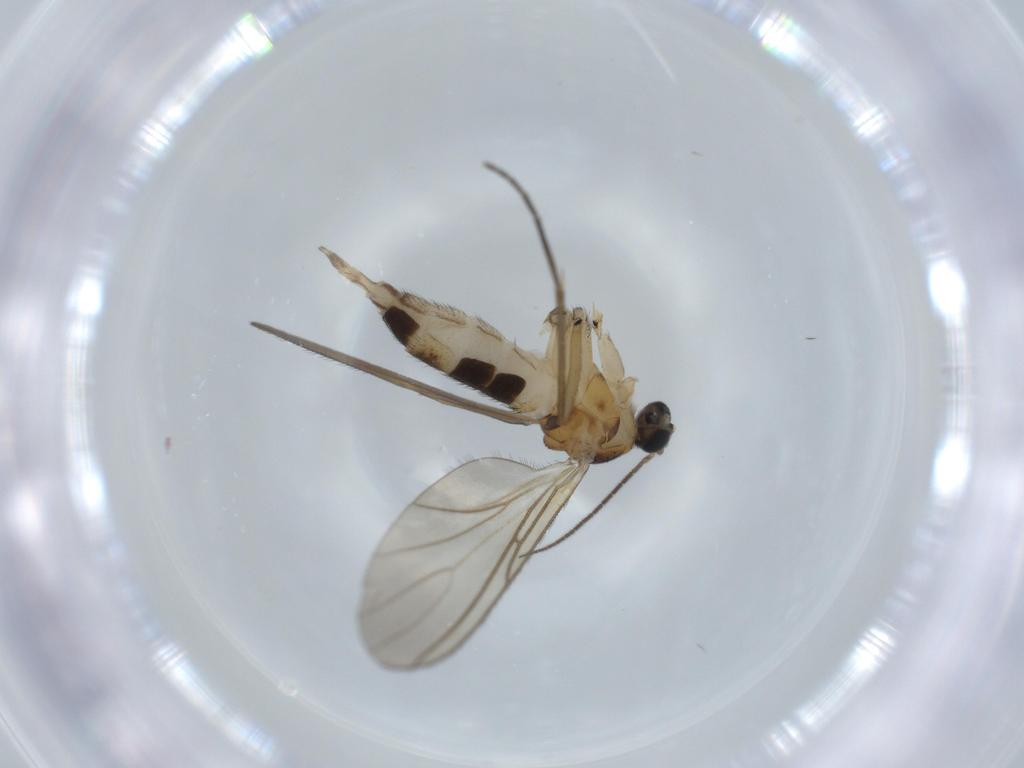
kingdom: Animalia
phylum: Arthropoda
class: Insecta
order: Diptera
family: Sciaridae
